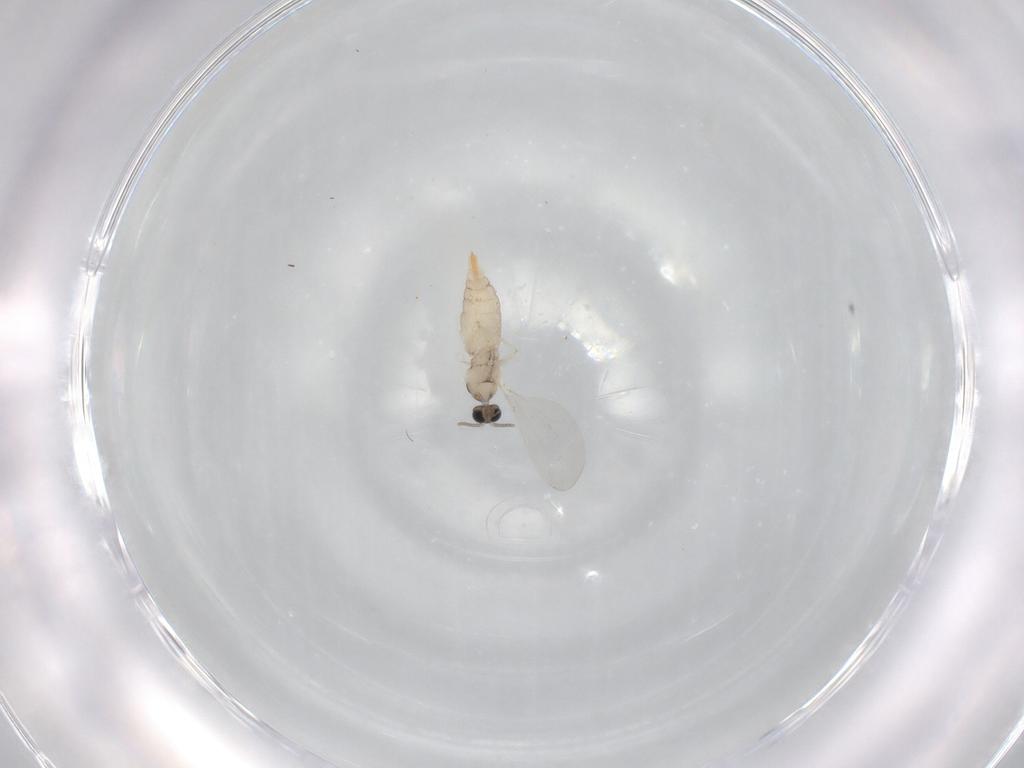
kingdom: Animalia
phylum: Arthropoda
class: Insecta
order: Diptera
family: Cecidomyiidae
